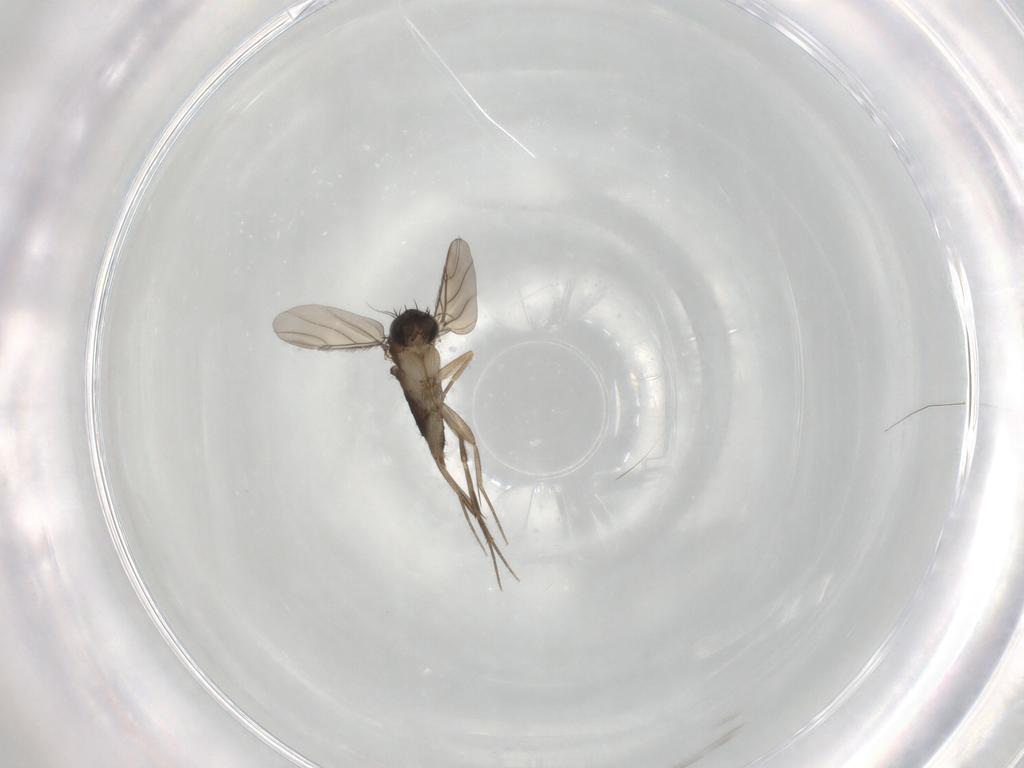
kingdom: Animalia
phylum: Arthropoda
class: Insecta
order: Diptera
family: Phoridae
